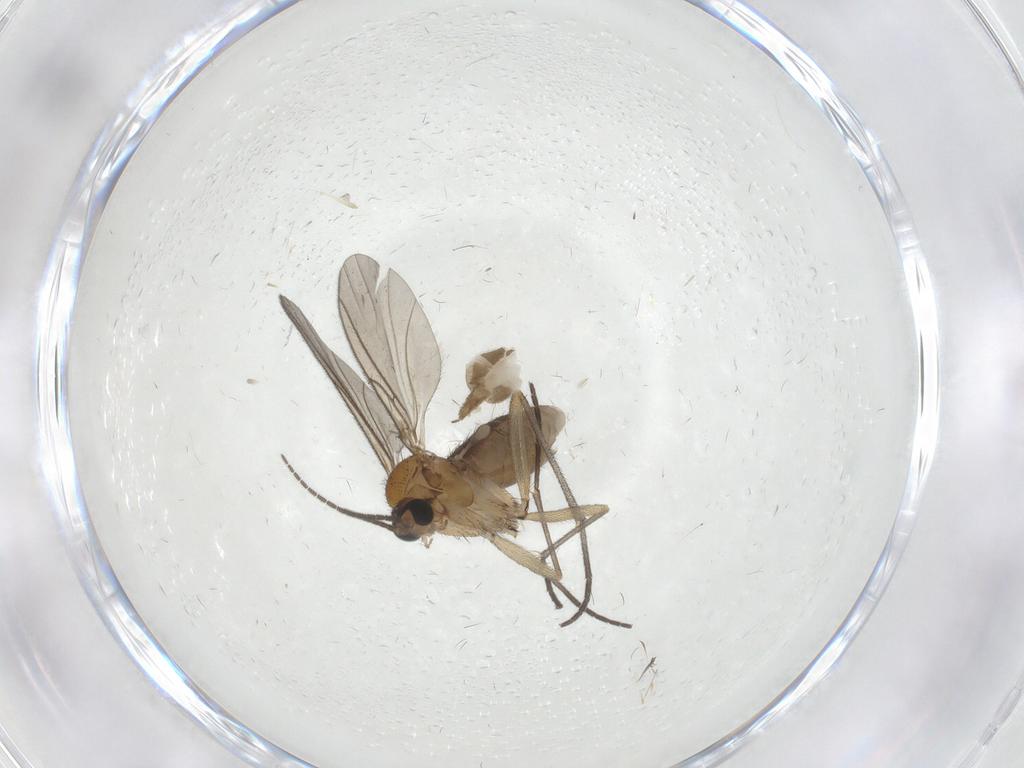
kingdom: Animalia
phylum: Arthropoda
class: Insecta
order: Diptera
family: Sciaridae
